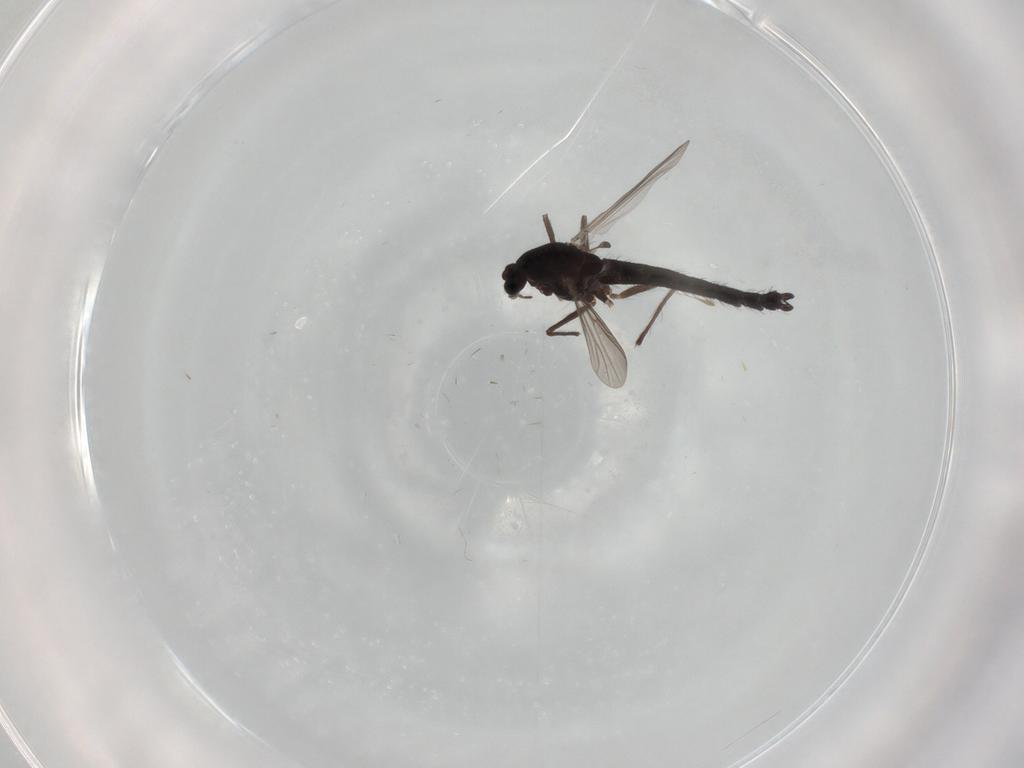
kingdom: Animalia
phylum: Arthropoda
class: Insecta
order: Diptera
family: Chironomidae
